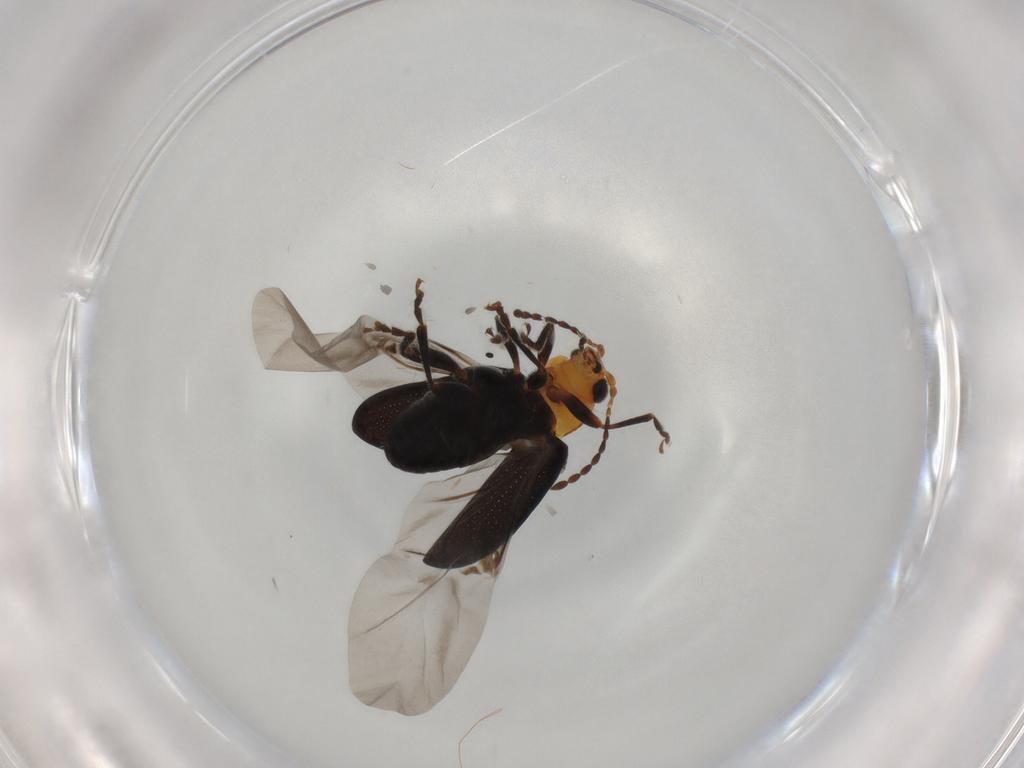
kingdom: Animalia
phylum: Arthropoda
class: Insecta
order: Coleoptera
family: Chrysomelidae
